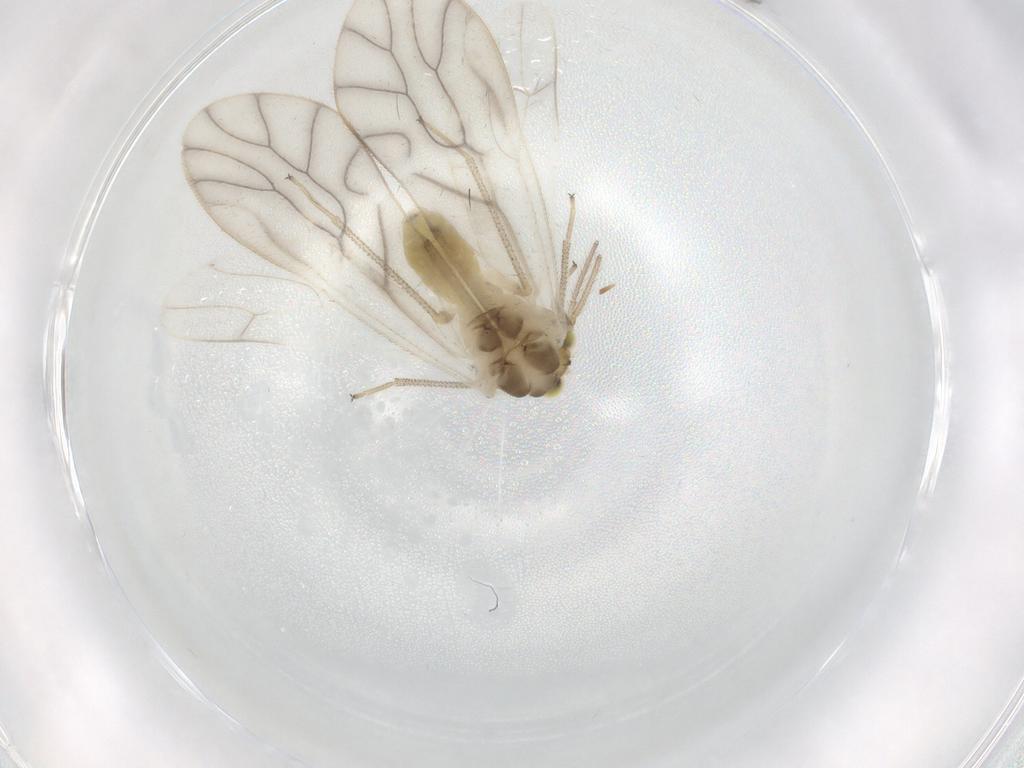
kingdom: Animalia
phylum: Arthropoda
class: Insecta
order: Psocodea
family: Caeciliusidae
